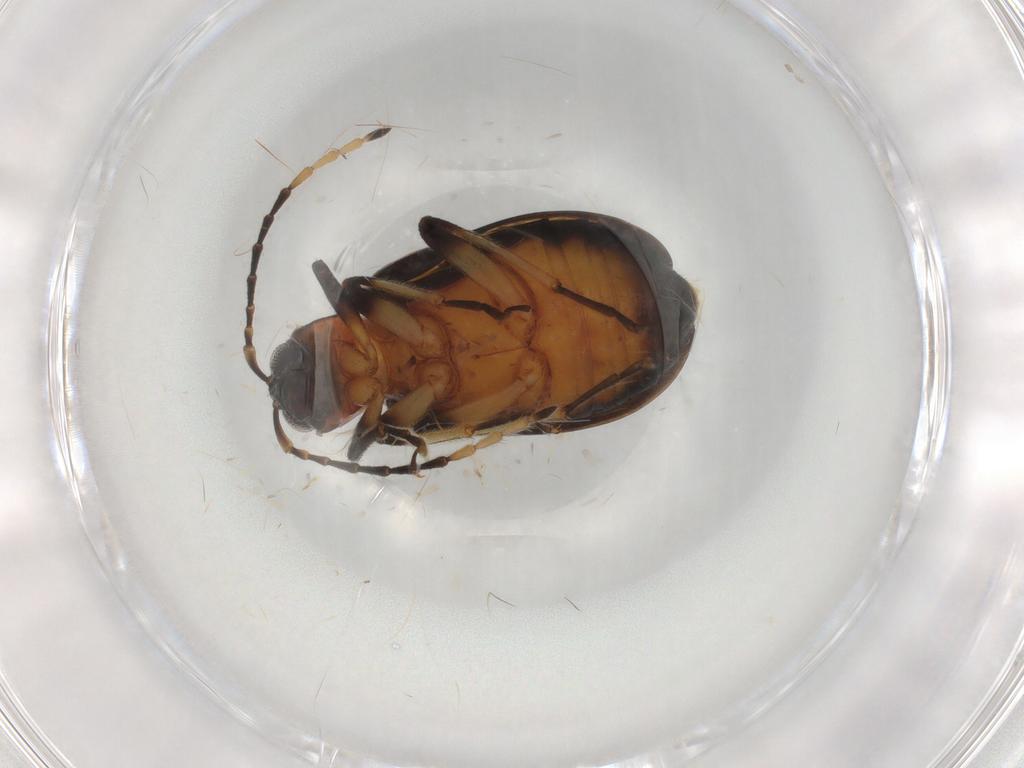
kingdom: Animalia
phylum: Arthropoda
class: Insecta
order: Coleoptera
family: Chrysomelidae
